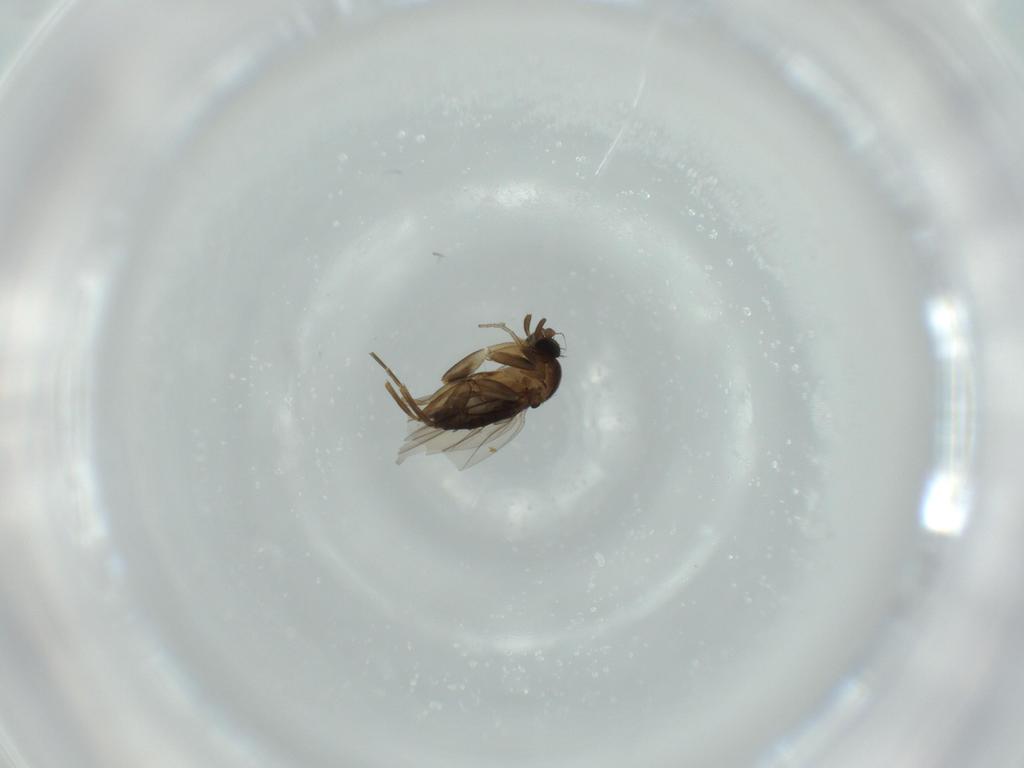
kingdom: Animalia
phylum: Arthropoda
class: Insecta
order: Diptera
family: Phoridae
